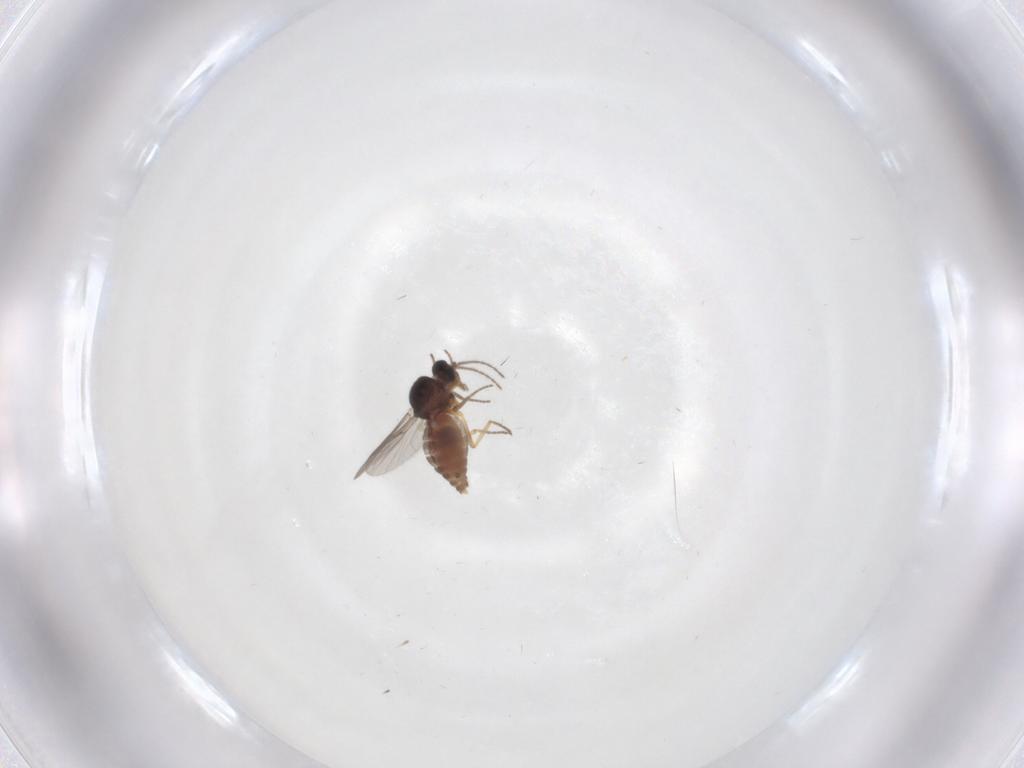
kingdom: Animalia
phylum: Arthropoda
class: Insecta
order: Diptera
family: Ceratopogonidae
